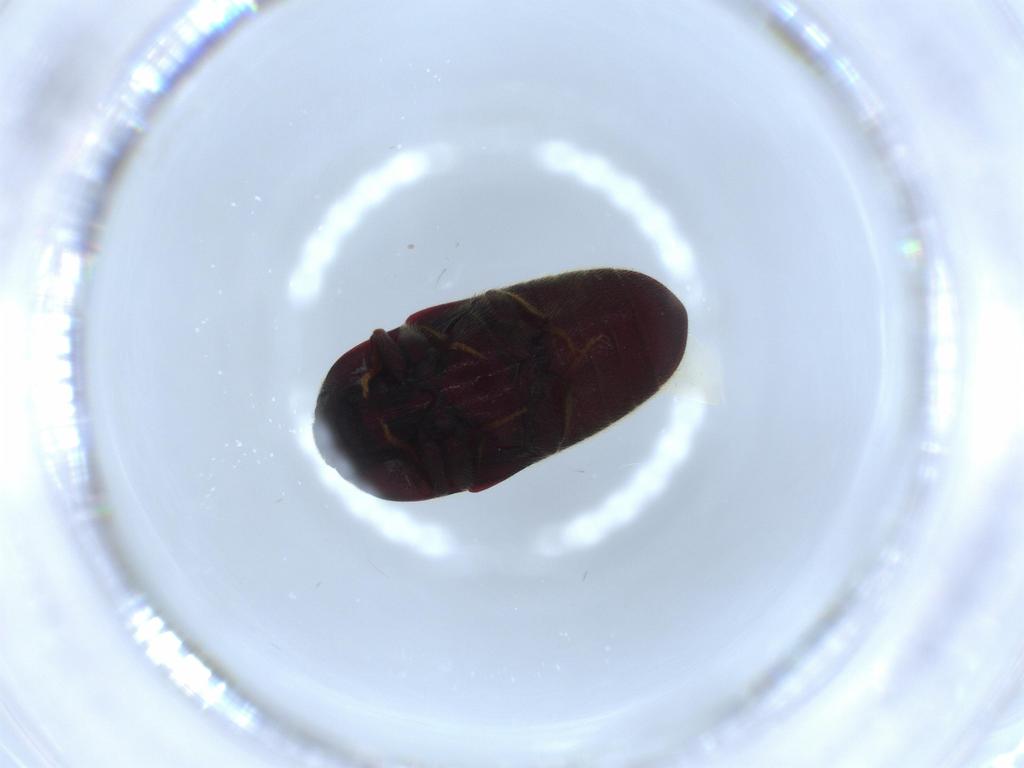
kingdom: Animalia
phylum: Arthropoda
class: Insecta
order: Coleoptera
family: Throscidae
